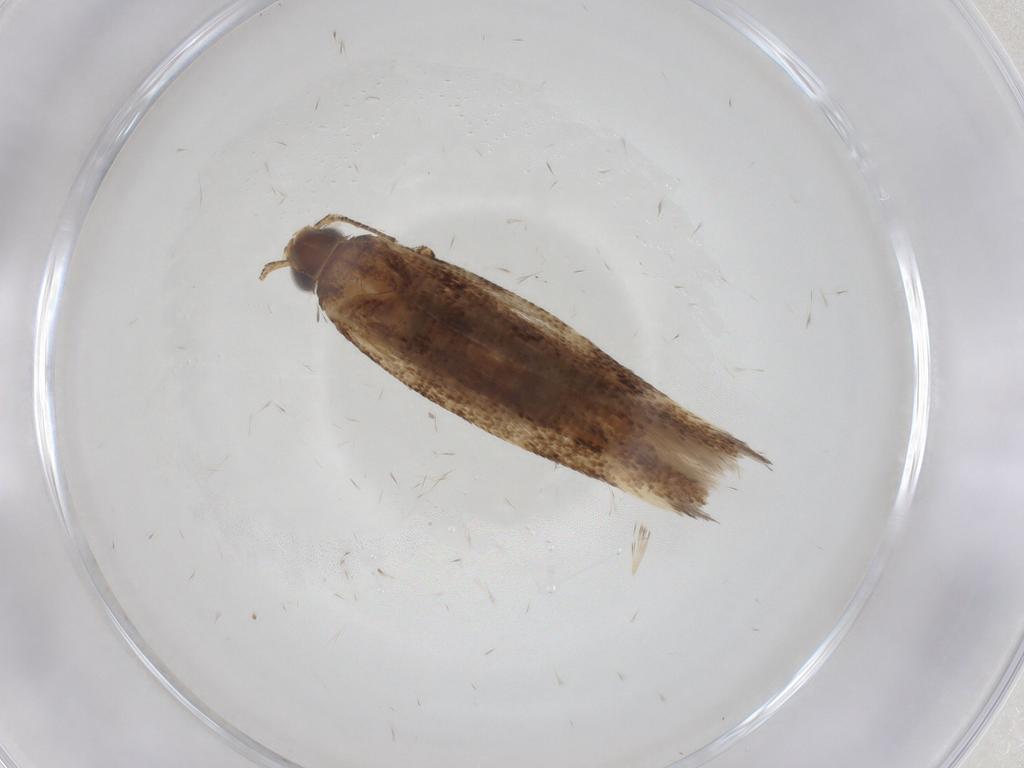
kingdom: Animalia
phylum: Arthropoda
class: Insecta
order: Lepidoptera
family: Gelechiidae
